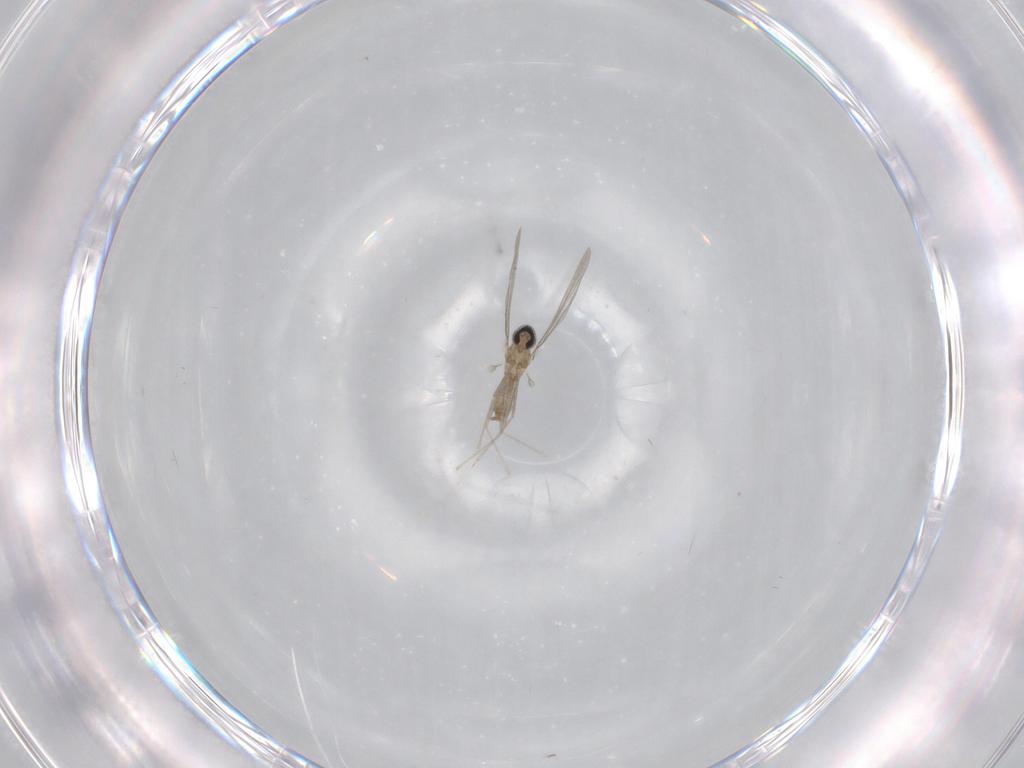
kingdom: Animalia
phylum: Arthropoda
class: Insecta
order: Diptera
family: Cecidomyiidae
